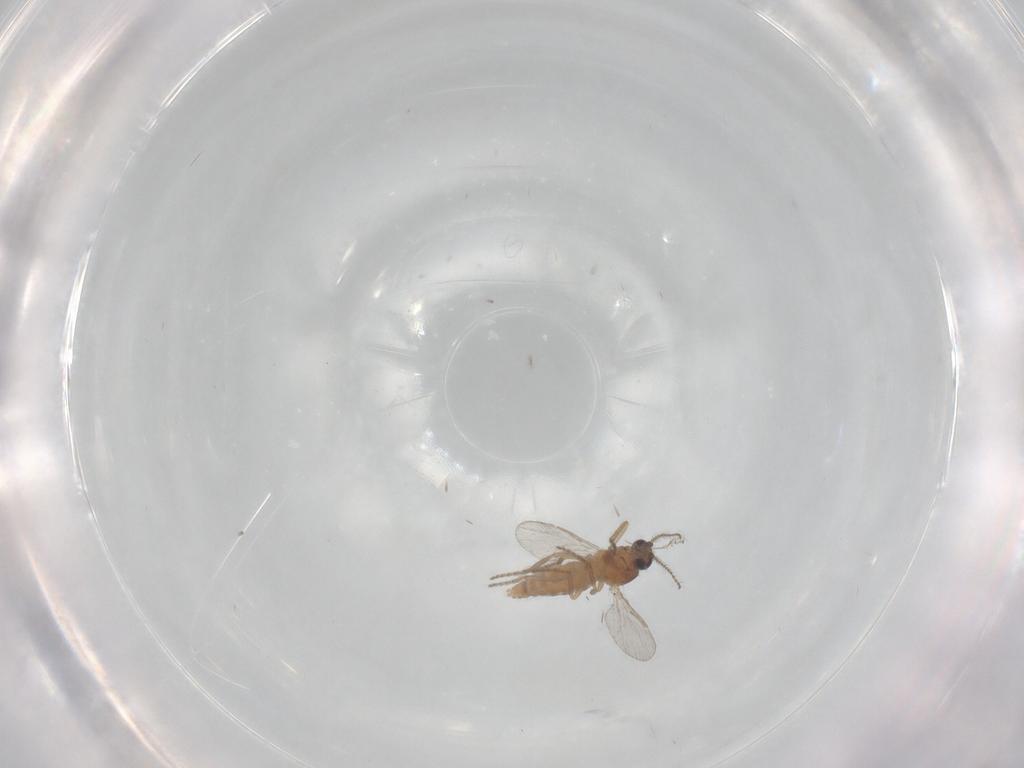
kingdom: Animalia
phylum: Arthropoda
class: Insecta
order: Diptera
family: Ceratopogonidae
